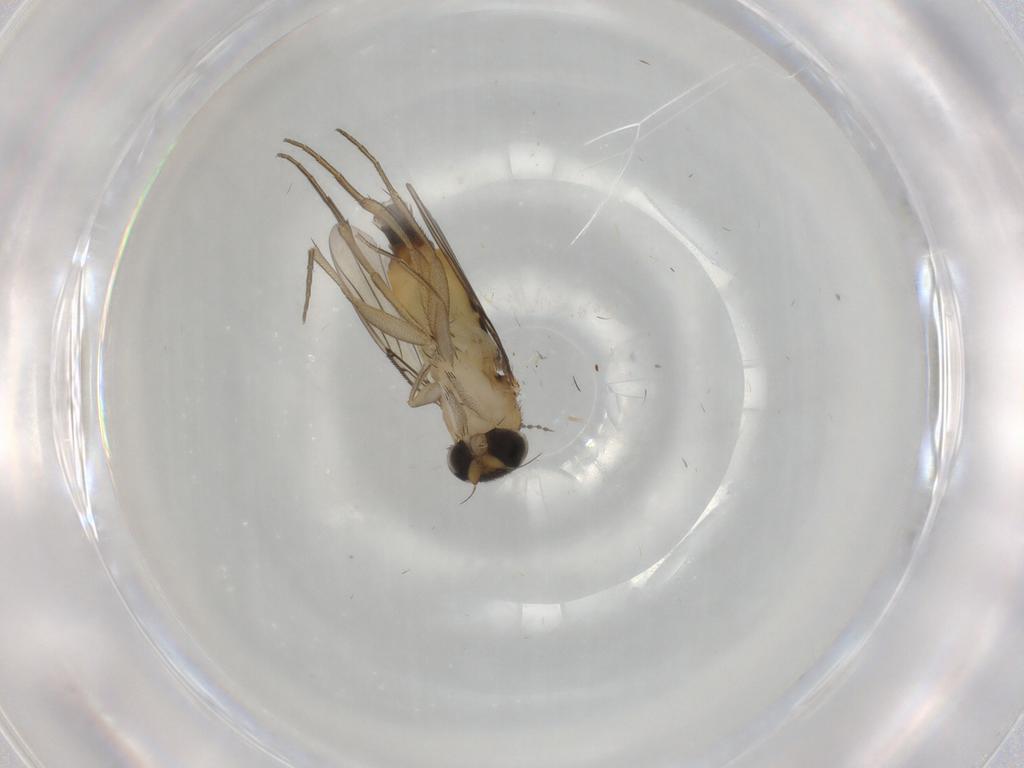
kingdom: Animalia
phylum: Arthropoda
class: Insecta
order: Diptera
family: Phoridae
